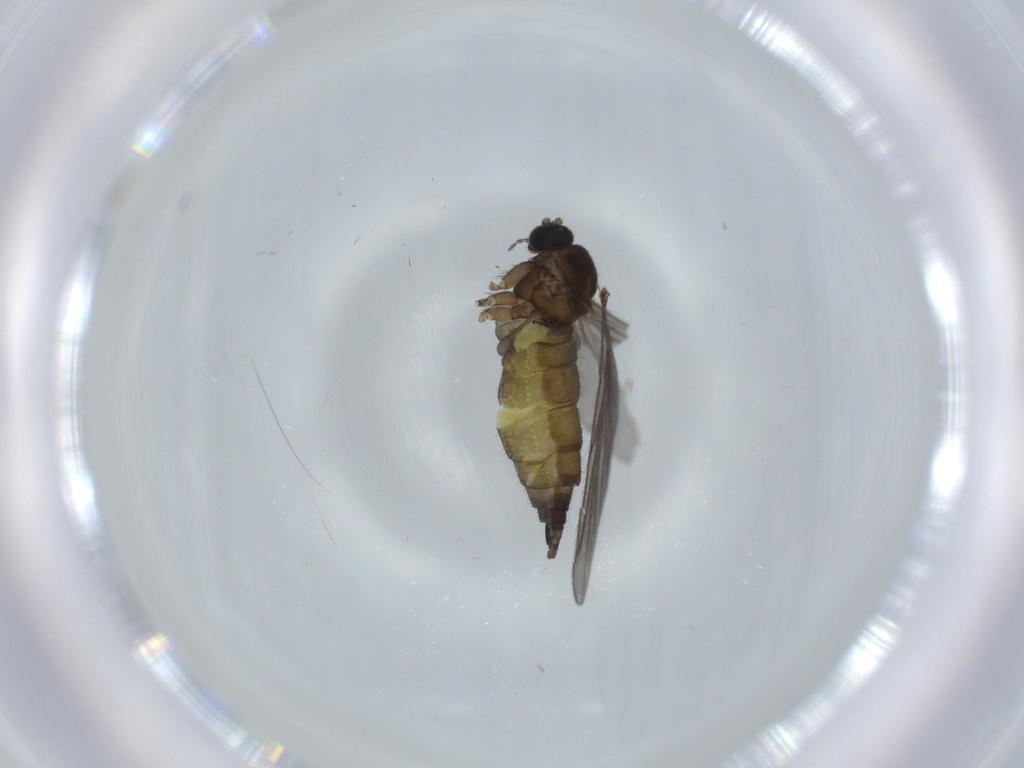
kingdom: Animalia
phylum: Arthropoda
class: Insecta
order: Diptera
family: Sciaridae
